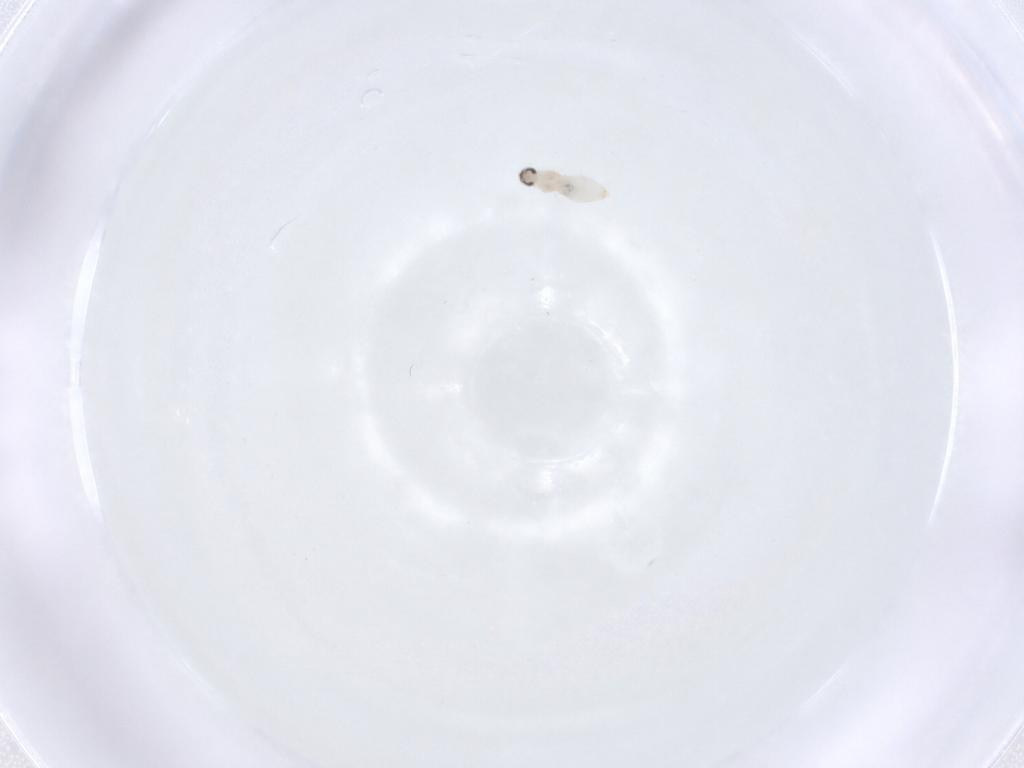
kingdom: Animalia
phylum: Arthropoda
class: Insecta
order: Diptera
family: Cecidomyiidae
